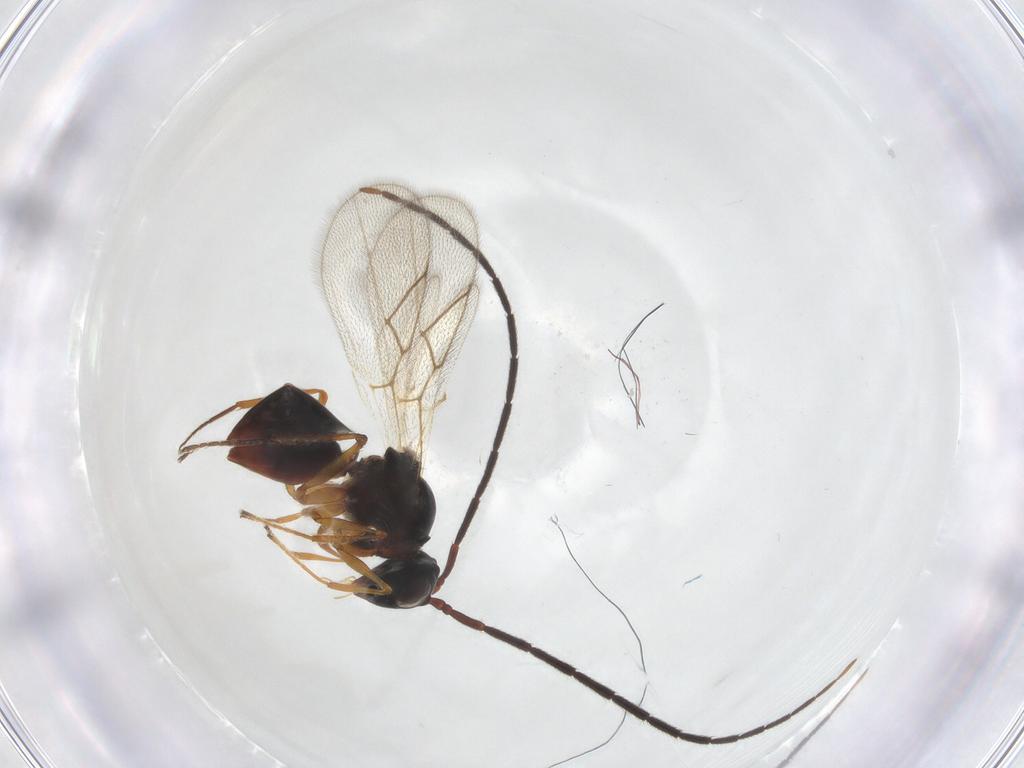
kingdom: Animalia
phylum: Arthropoda
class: Insecta
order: Hymenoptera
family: Figitidae
